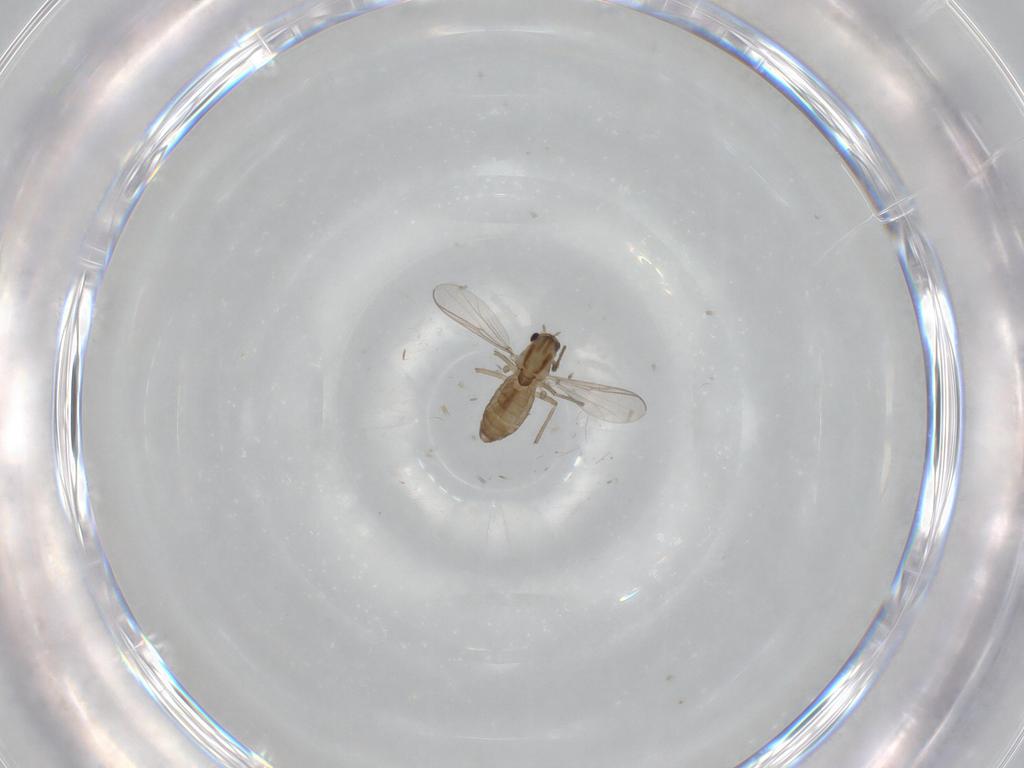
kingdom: Animalia
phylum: Arthropoda
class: Insecta
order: Diptera
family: Chironomidae
